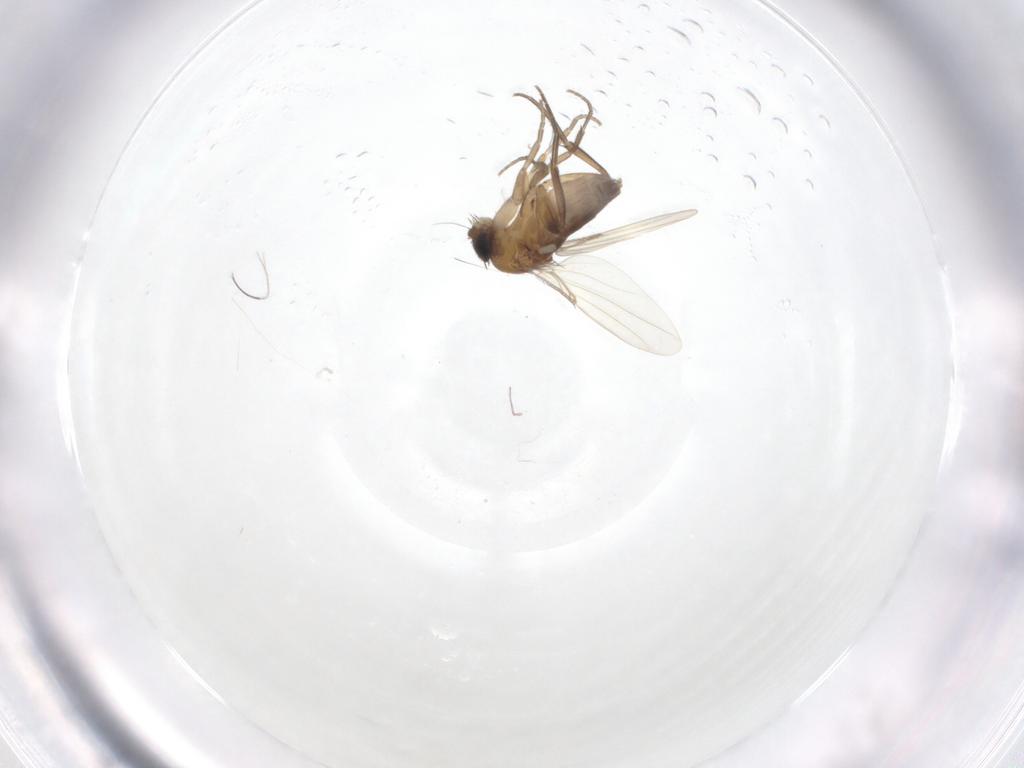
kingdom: Animalia
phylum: Arthropoda
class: Insecta
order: Diptera
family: Phoridae
